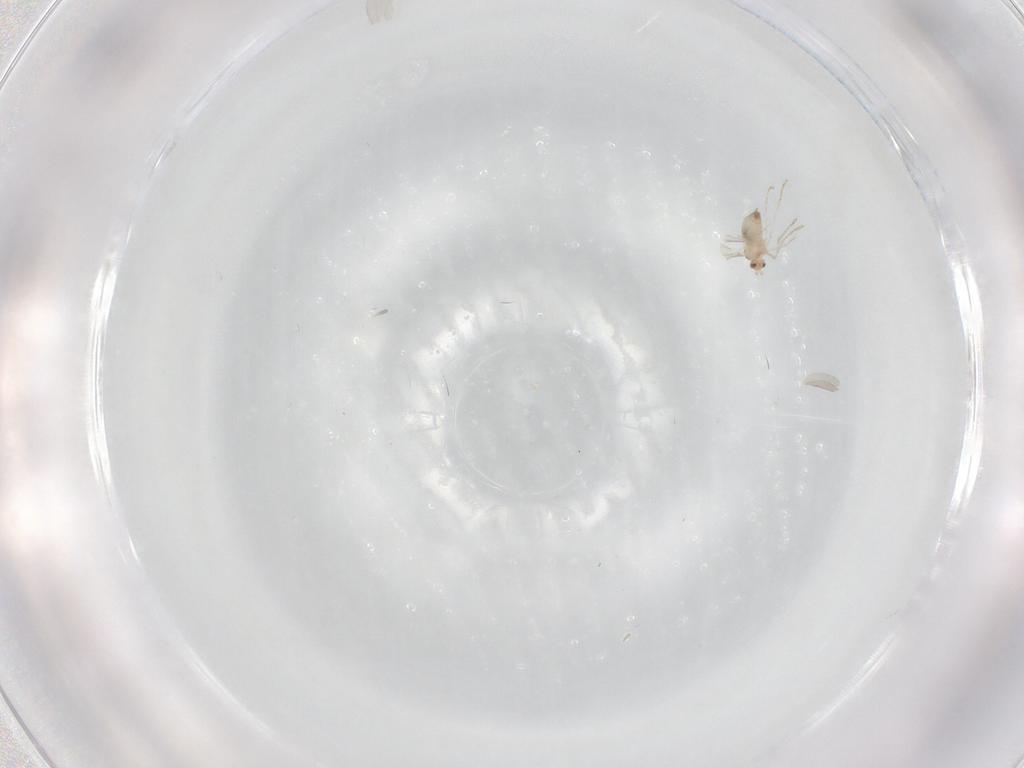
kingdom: Animalia
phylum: Arthropoda
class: Insecta
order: Diptera
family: Cecidomyiidae
